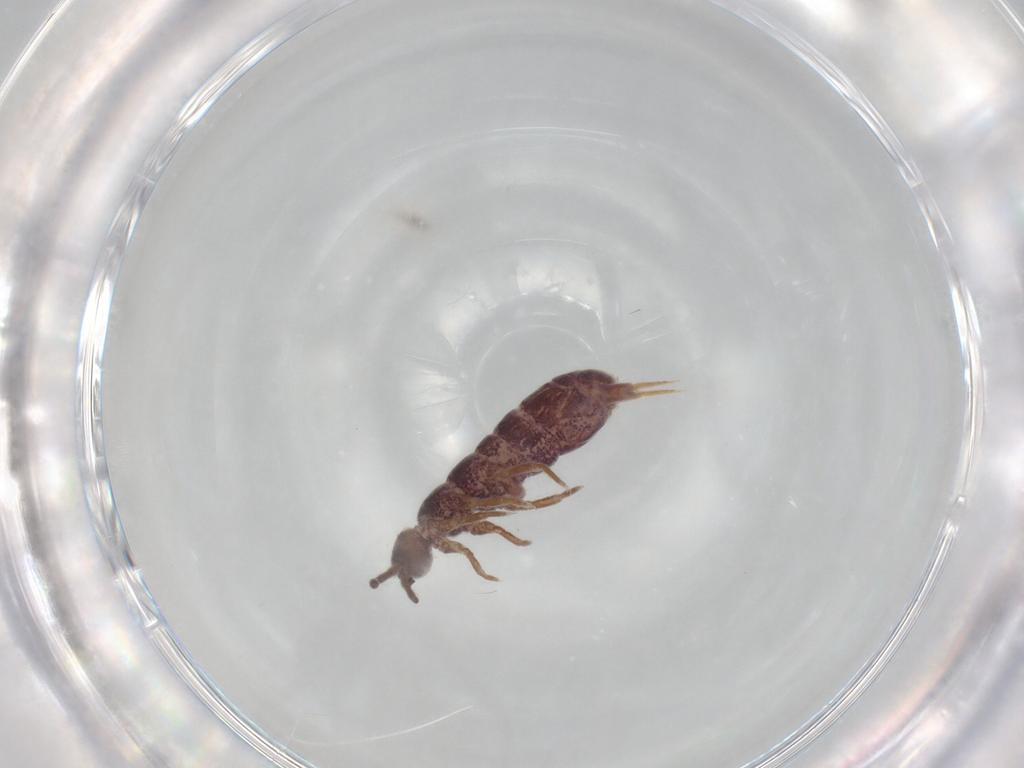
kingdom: Animalia
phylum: Arthropoda
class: Collembola
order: Entomobryomorpha
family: Isotomidae
